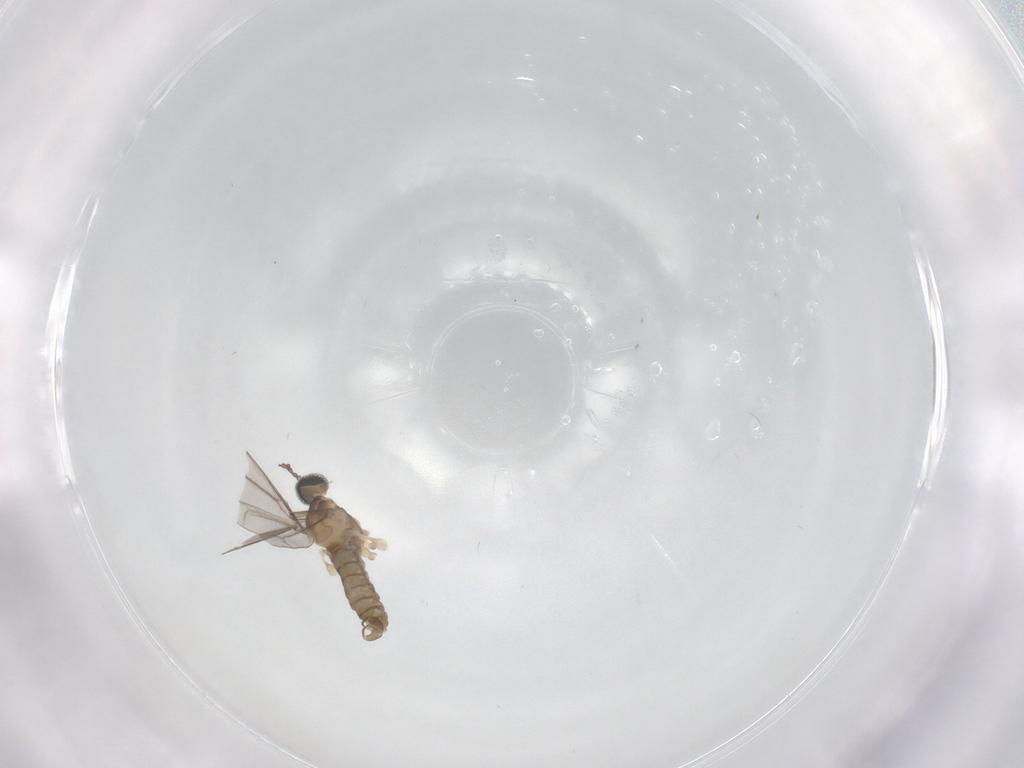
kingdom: Animalia
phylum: Arthropoda
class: Insecta
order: Diptera
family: Cecidomyiidae
